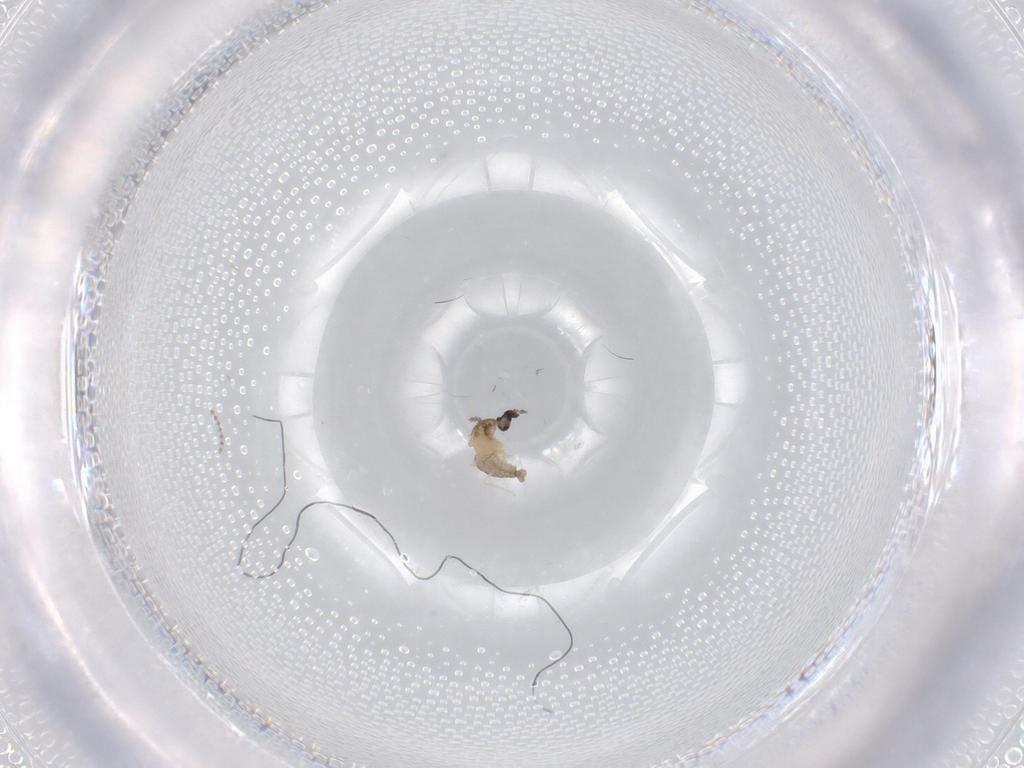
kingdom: Animalia
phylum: Arthropoda
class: Insecta
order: Diptera
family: Cecidomyiidae
